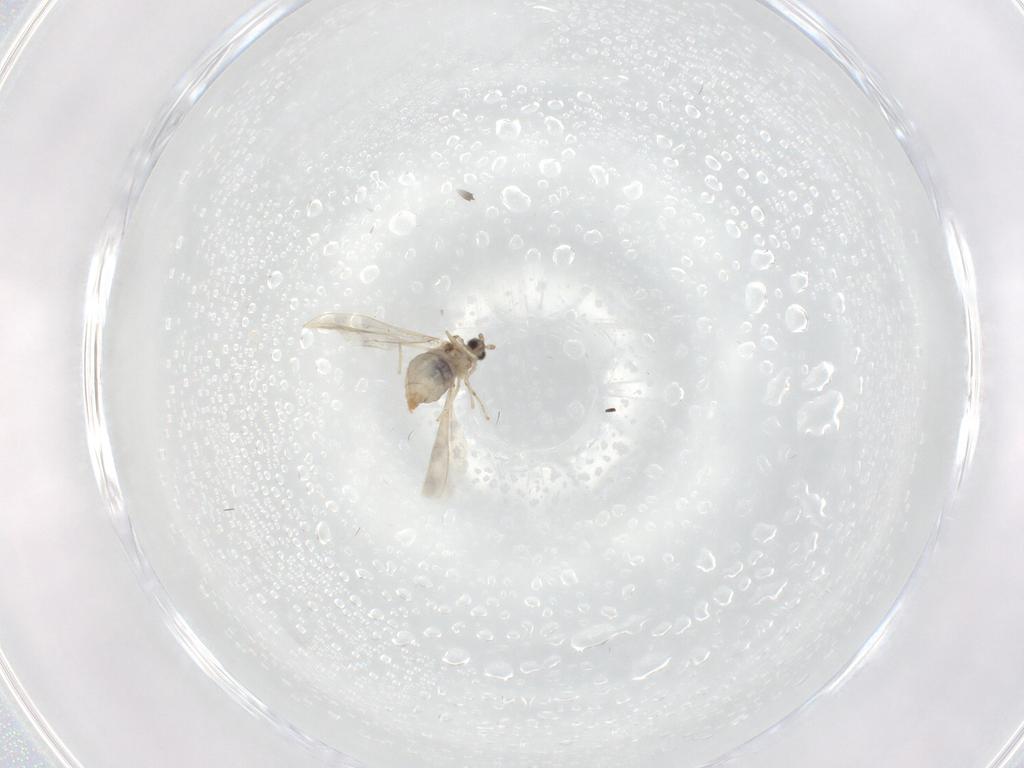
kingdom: Animalia
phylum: Arthropoda
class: Insecta
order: Diptera
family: Cecidomyiidae
